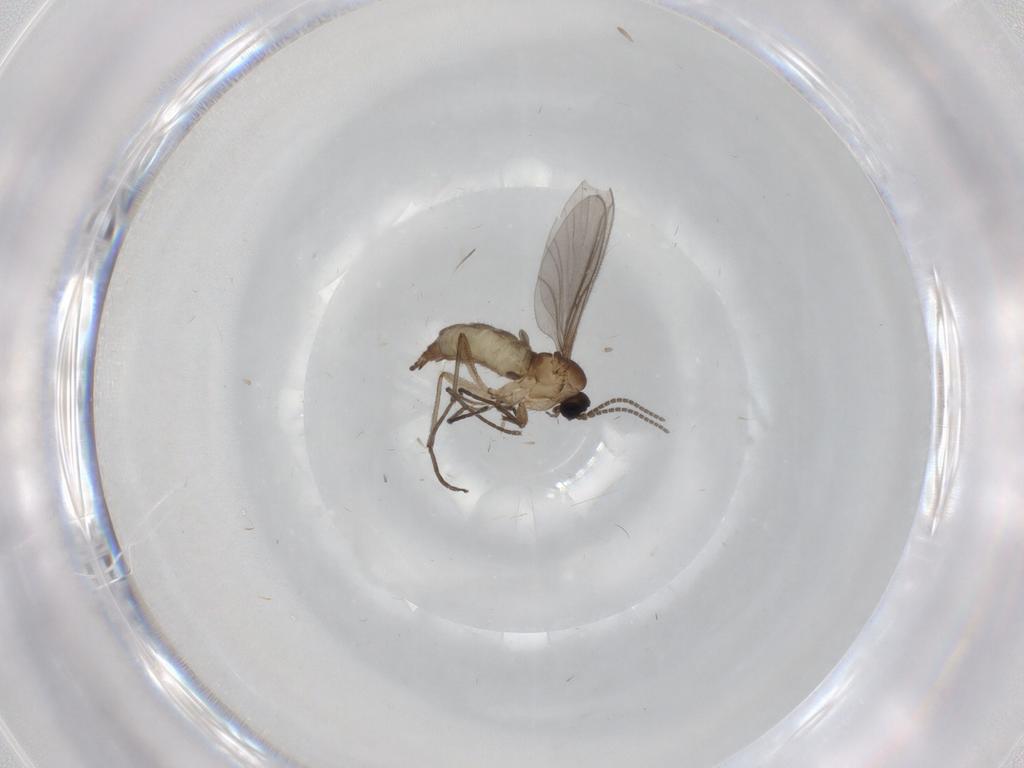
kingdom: Animalia
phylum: Arthropoda
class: Insecta
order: Diptera
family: Sciaridae
